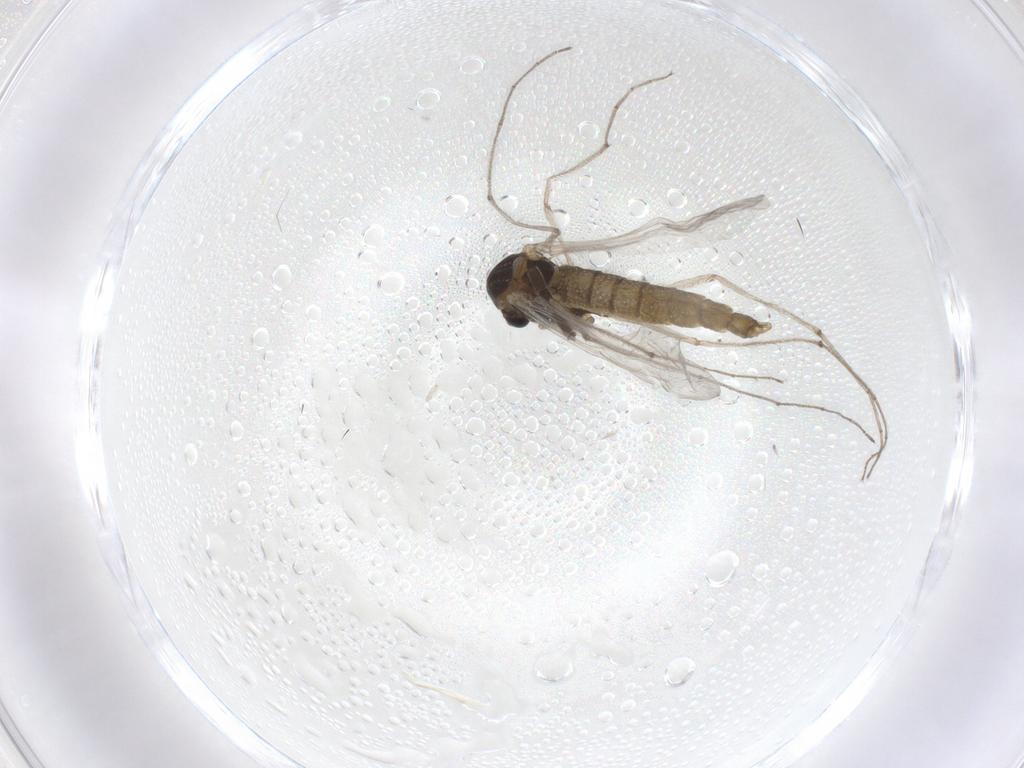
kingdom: Animalia
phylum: Arthropoda
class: Insecta
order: Diptera
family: Chironomidae
